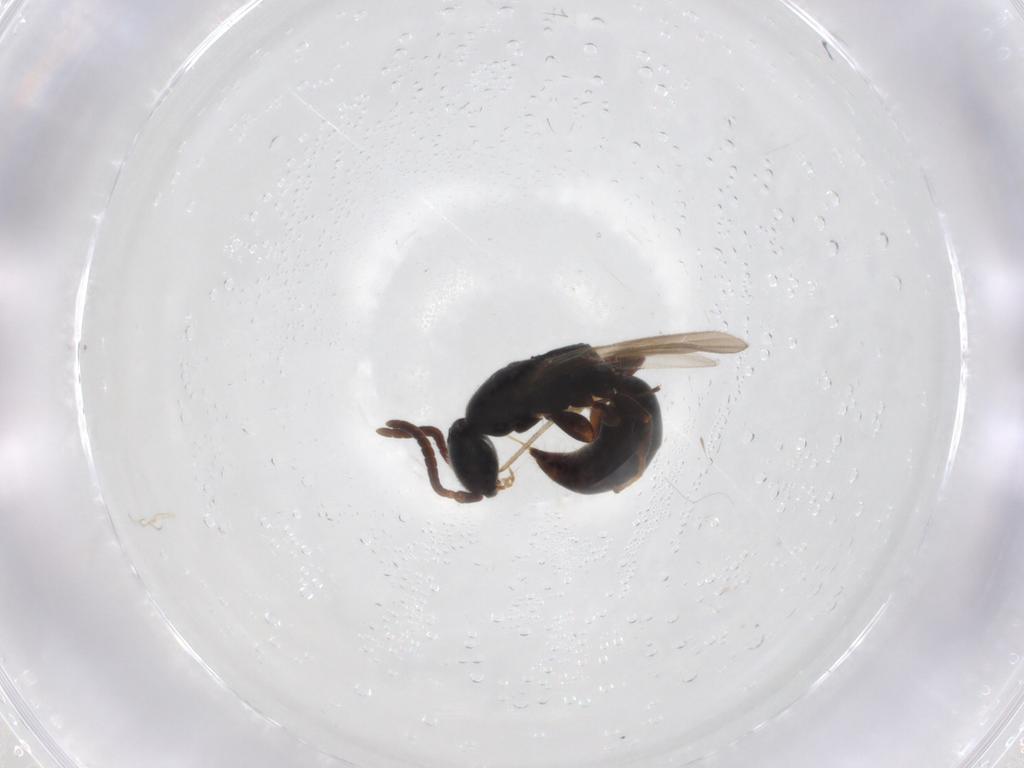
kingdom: Animalia
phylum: Arthropoda
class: Insecta
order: Hymenoptera
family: Bethylidae
